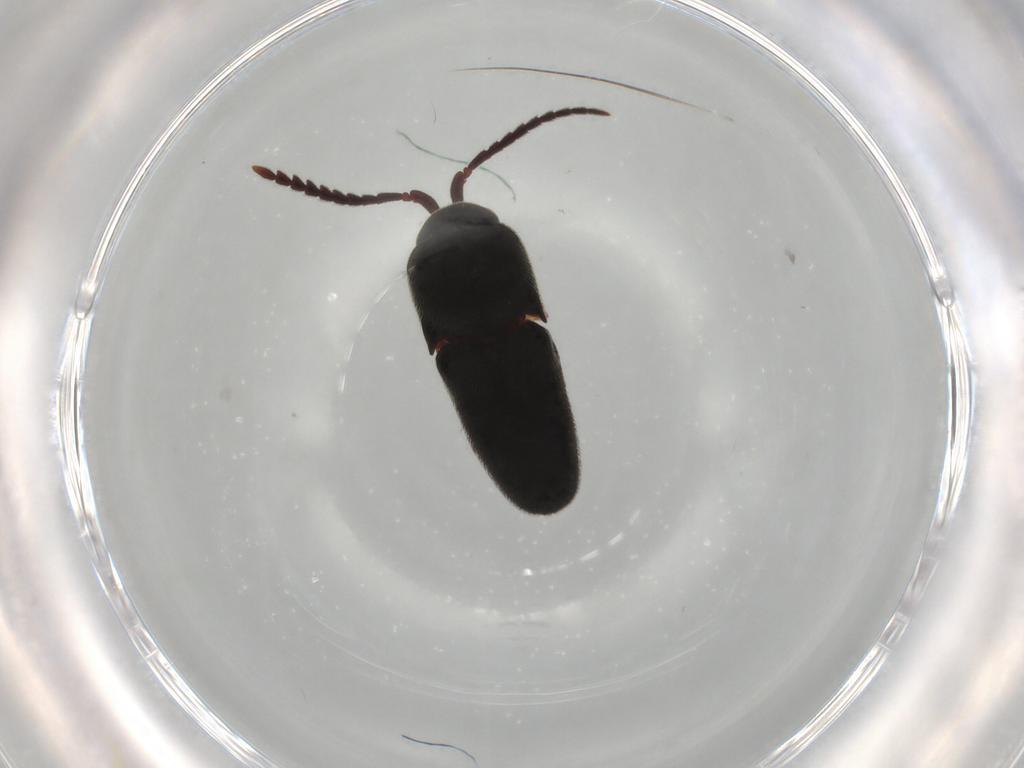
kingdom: Animalia
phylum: Arthropoda
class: Insecta
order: Coleoptera
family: Eucnemidae
